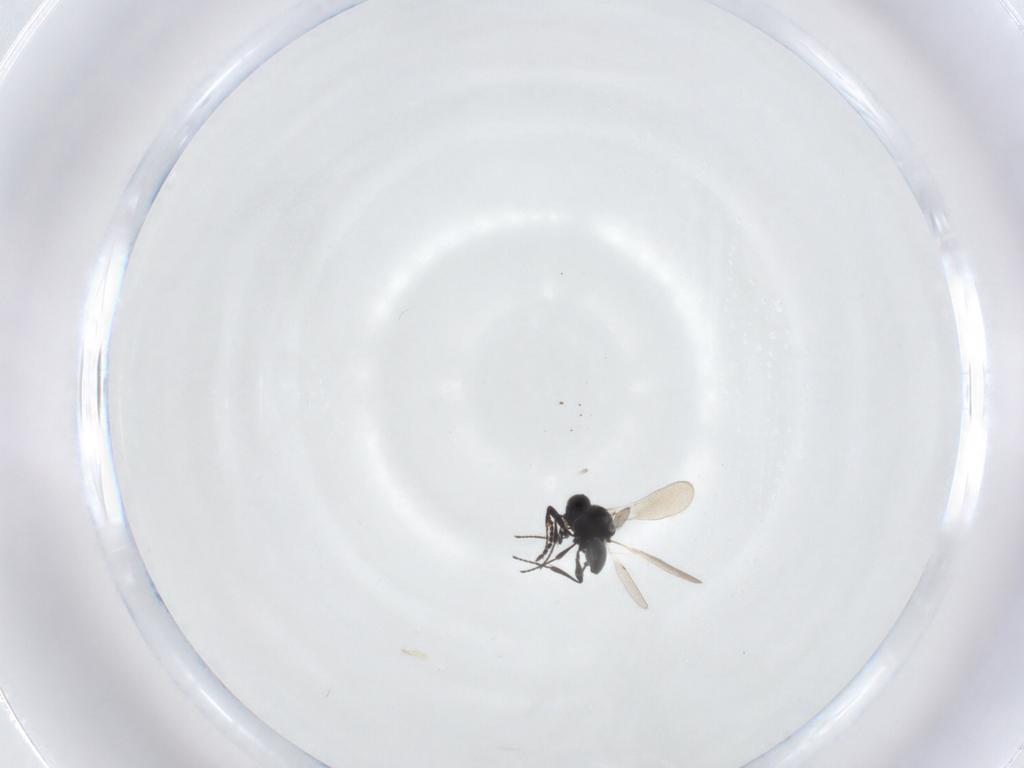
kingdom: Animalia
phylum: Arthropoda
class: Insecta
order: Hymenoptera
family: Platygastridae
